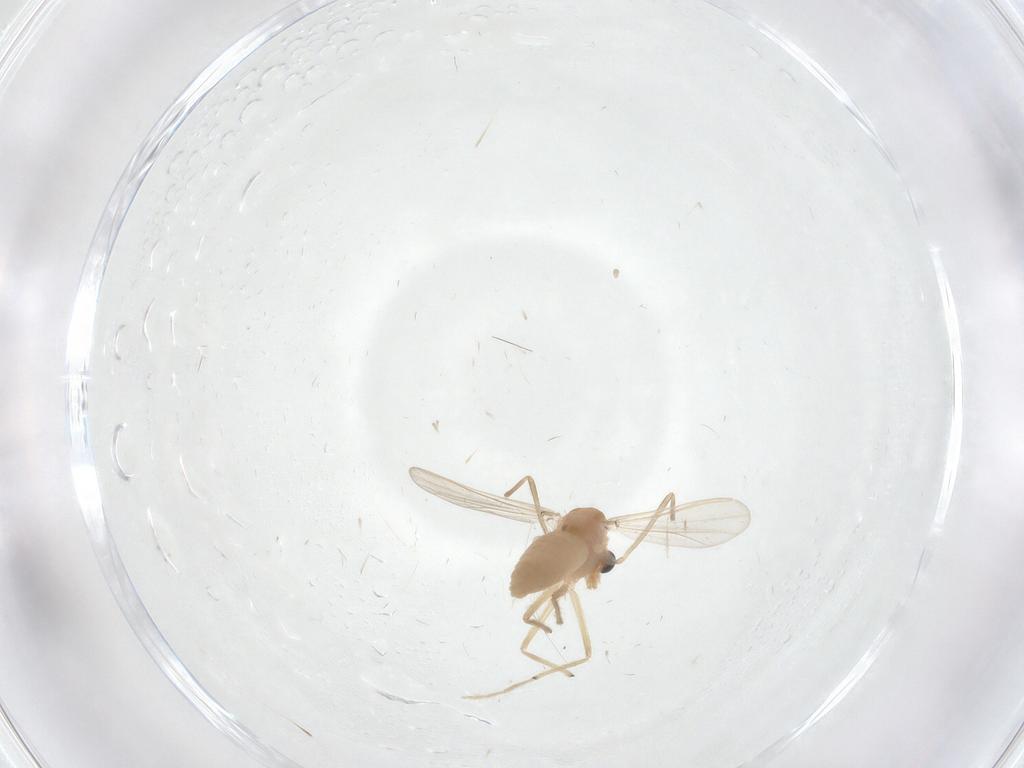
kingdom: Animalia
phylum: Arthropoda
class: Insecta
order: Diptera
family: Chironomidae
